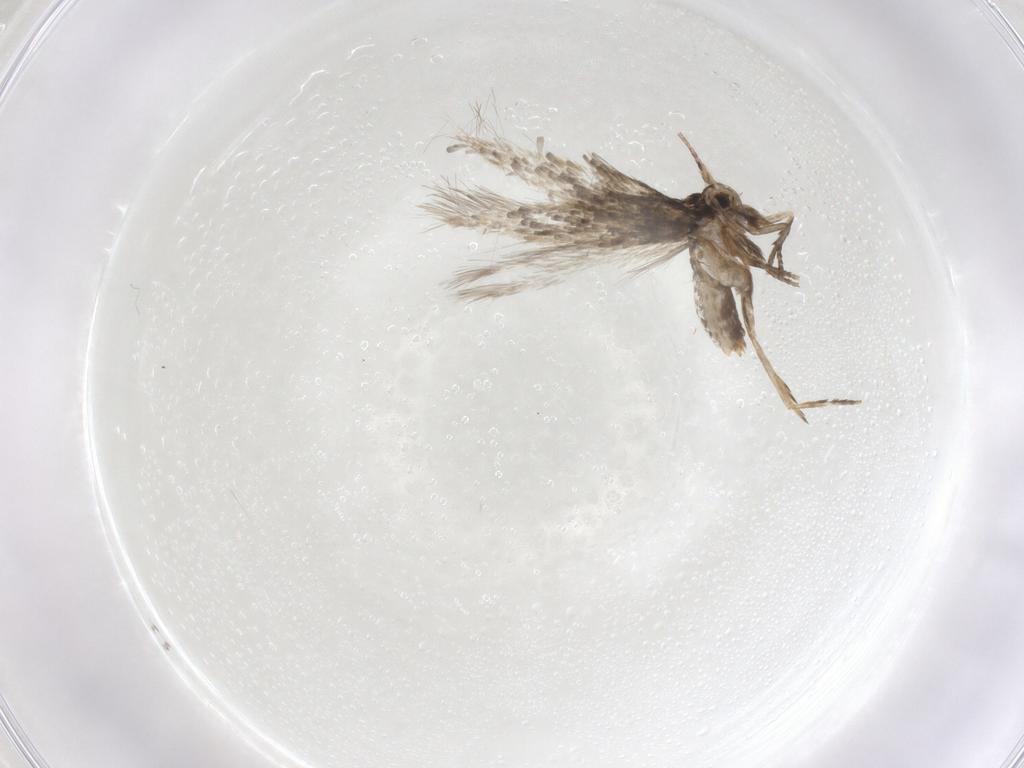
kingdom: Animalia
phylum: Arthropoda
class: Insecta
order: Lepidoptera
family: Nepticulidae
